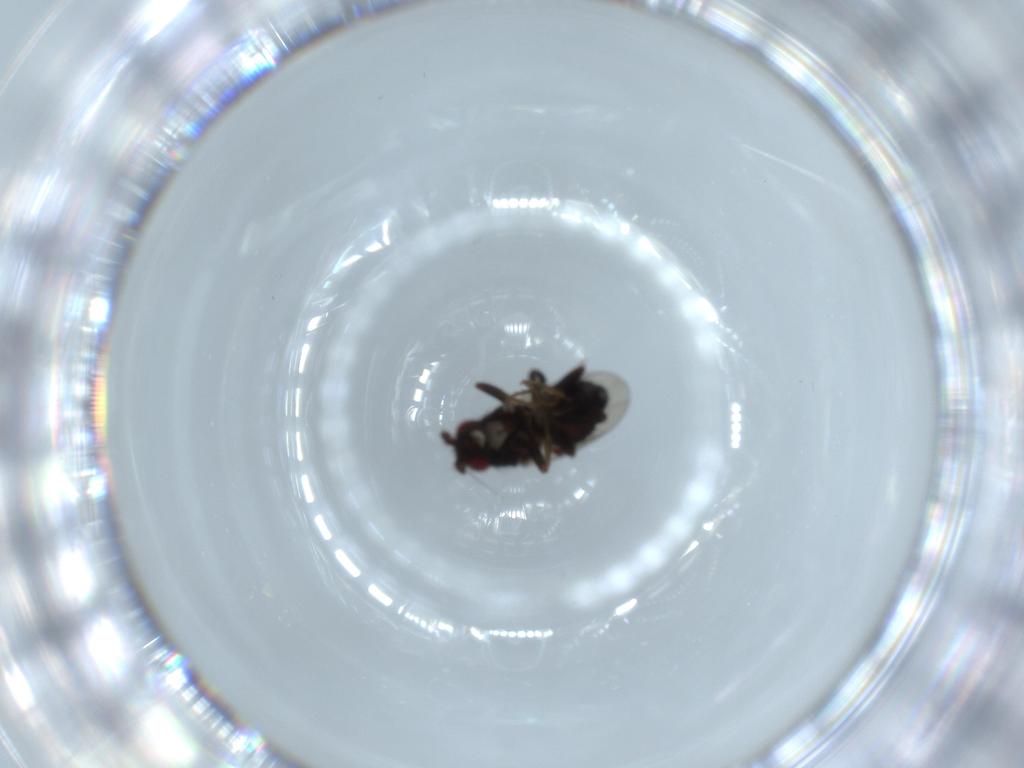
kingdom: Animalia
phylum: Arthropoda
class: Insecta
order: Diptera
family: Sphaeroceridae
